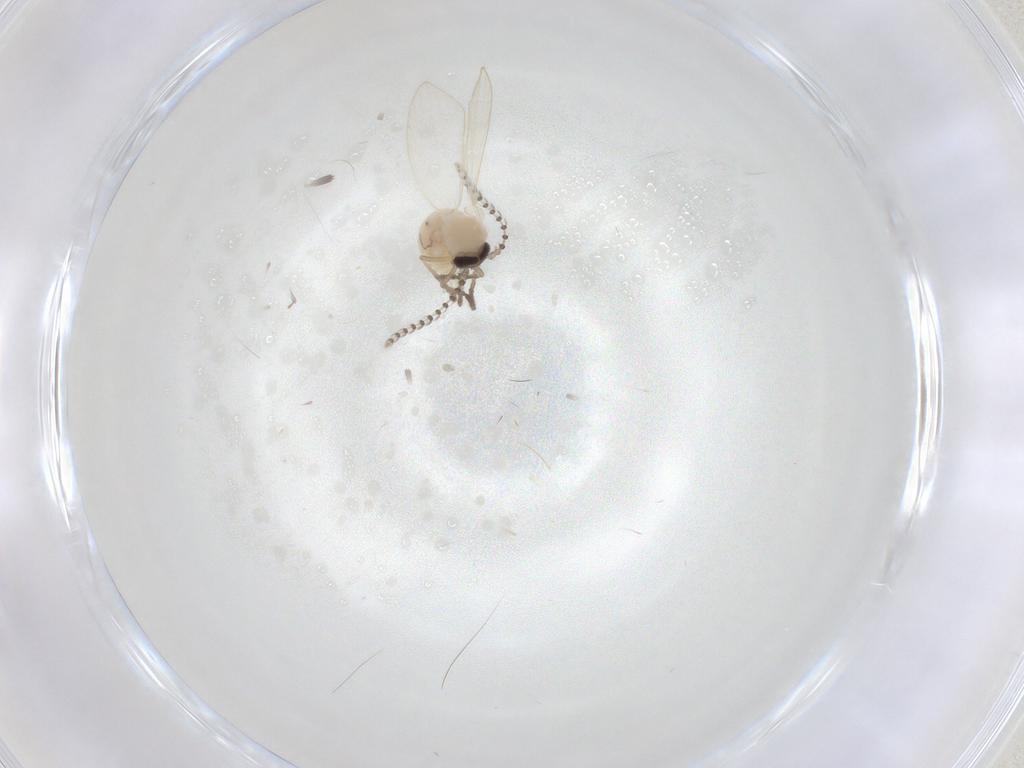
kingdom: Animalia
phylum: Arthropoda
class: Insecta
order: Diptera
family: Psychodidae
